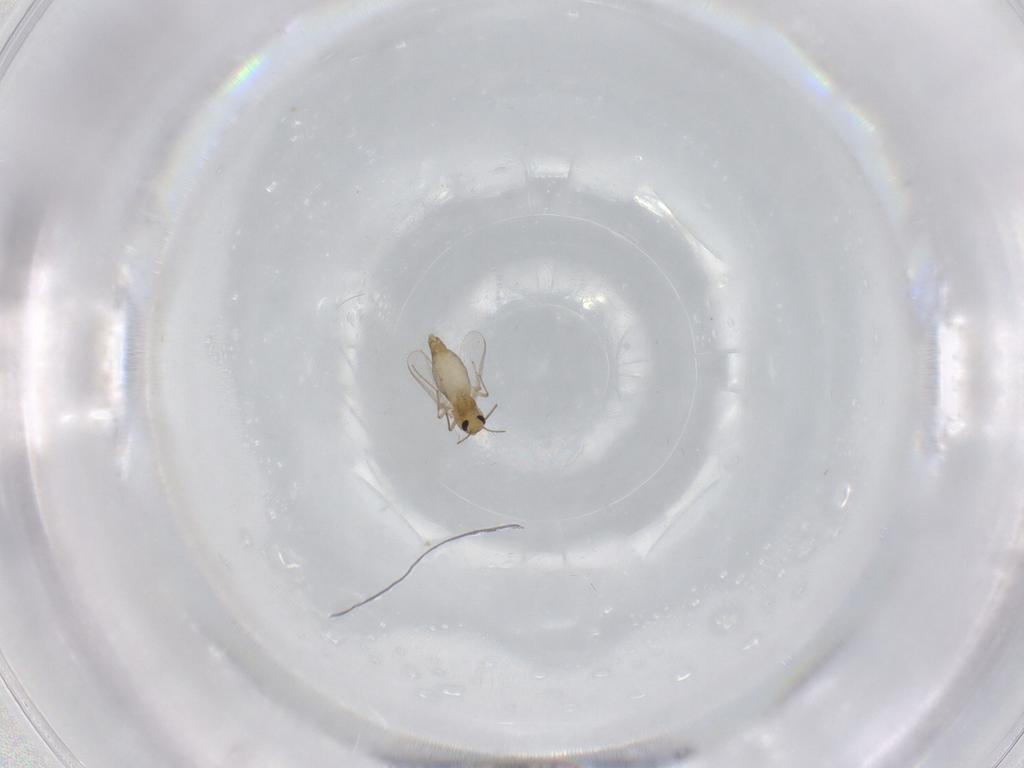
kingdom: Animalia
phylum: Arthropoda
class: Insecta
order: Diptera
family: Chironomidae
